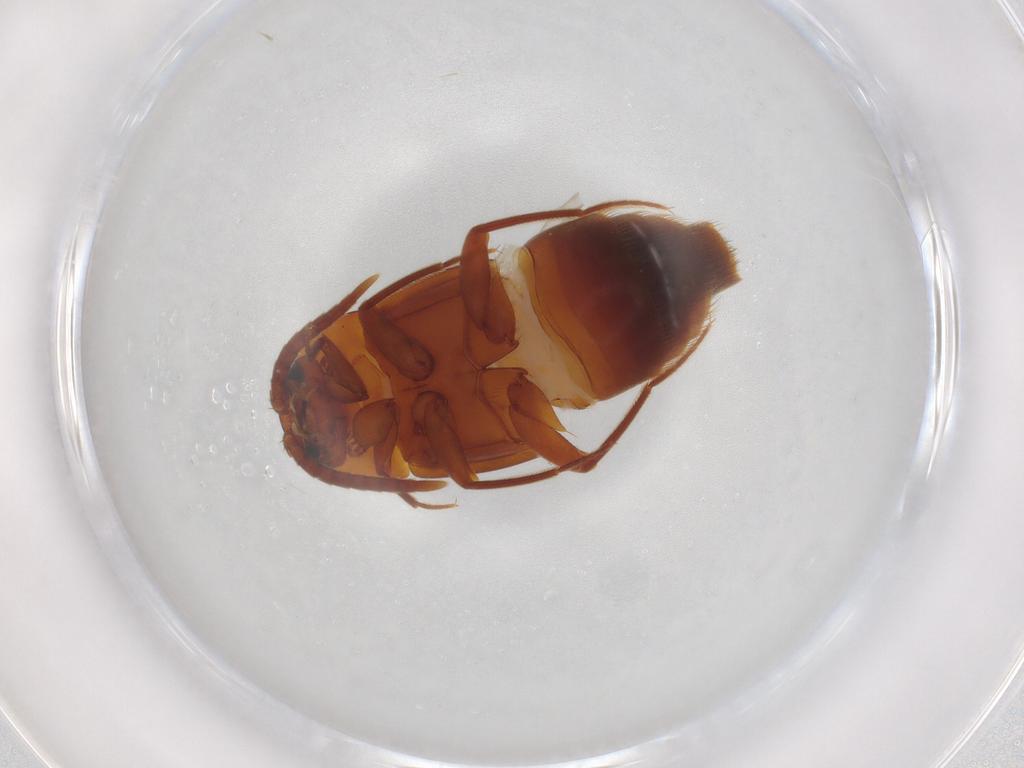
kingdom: Animalia
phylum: Arthropoda
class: Insecta
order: Coleoptera
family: Staphylinidae
